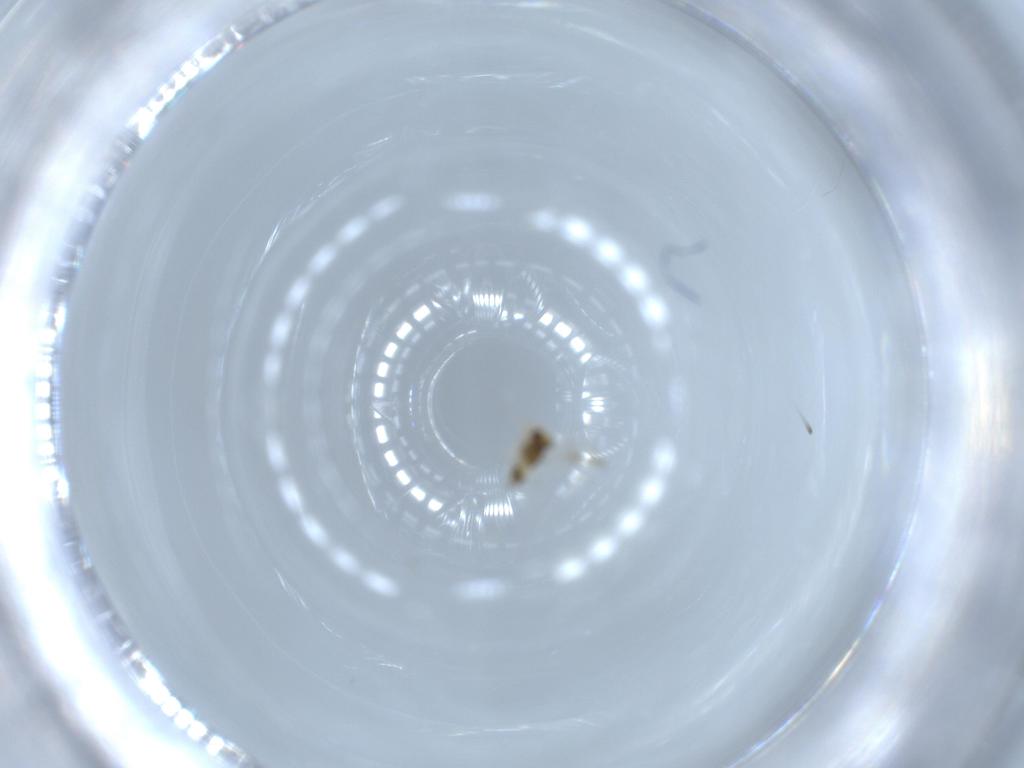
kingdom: Animalia
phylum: Arthropoda
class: Insecta
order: Hymenoptera
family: Aphelinidae
